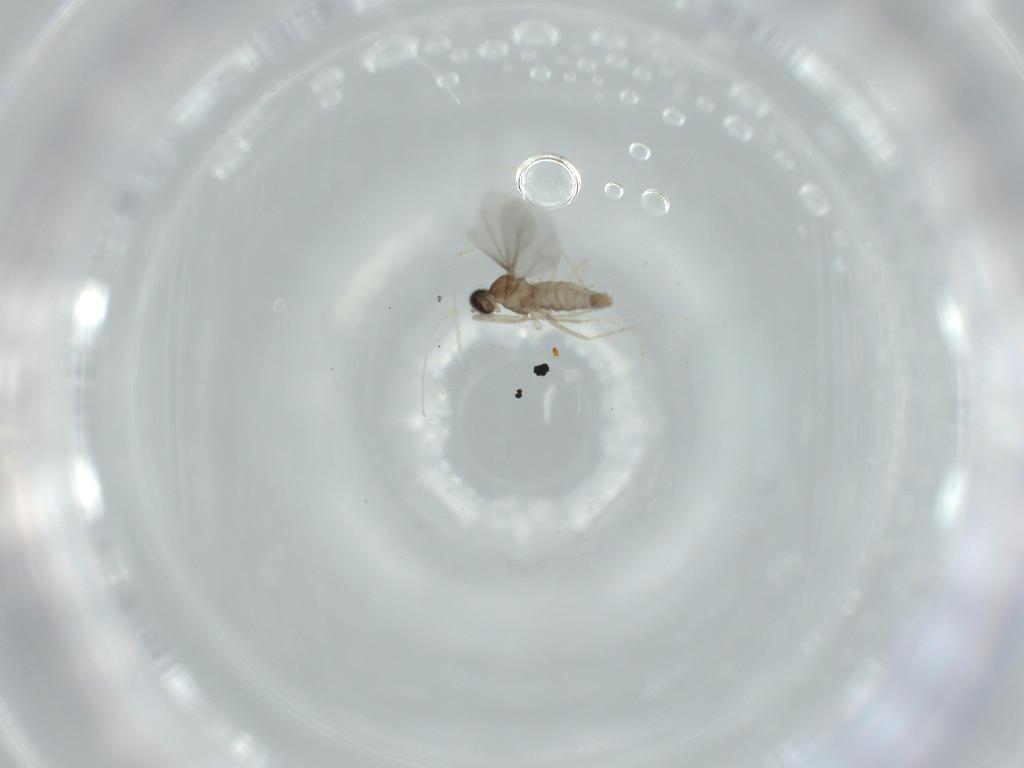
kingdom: Animalia
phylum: Arthropoda
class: Insecta
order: Diptera
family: Cecidomyiidae
